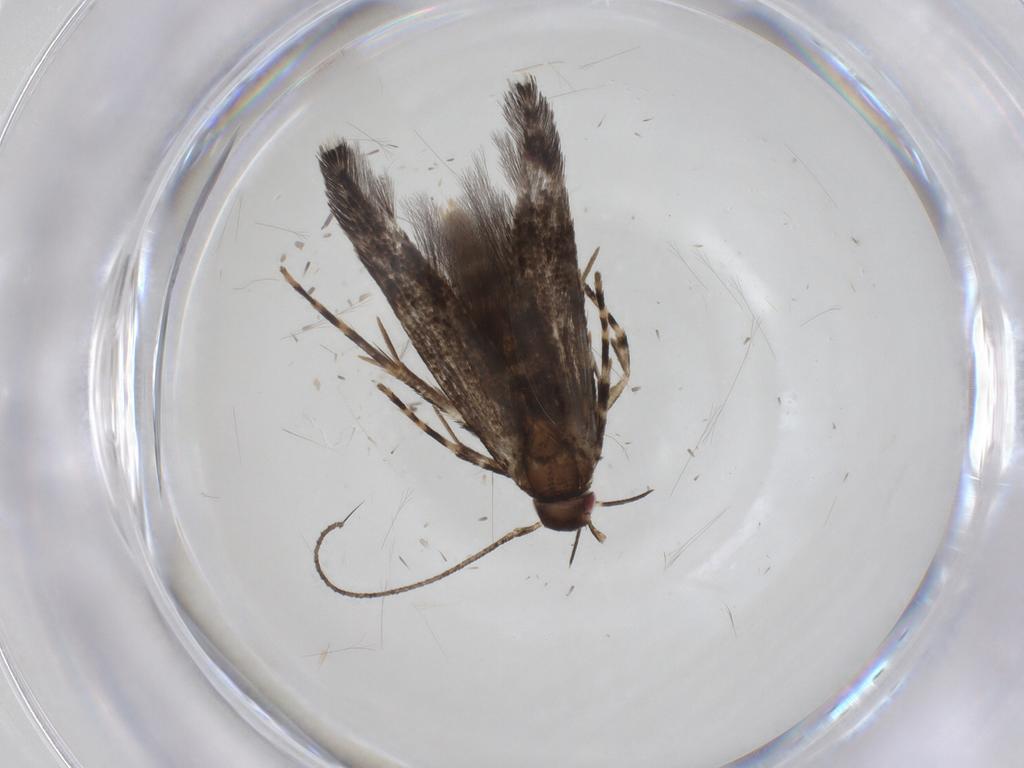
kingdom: Animalia
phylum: Arthropoda
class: Insecta
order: Lepidoptera
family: Cosmopterigidae
